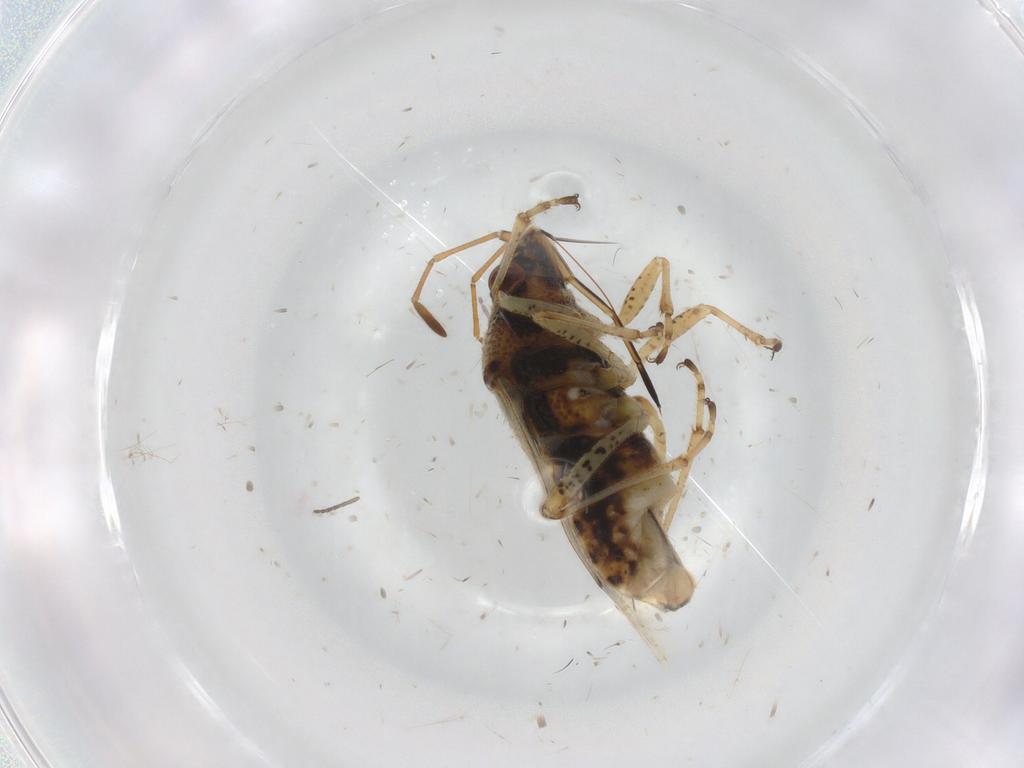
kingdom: Animalia
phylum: Arthropoda
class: Insecta
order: Hemiptera
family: Lygaeidae
